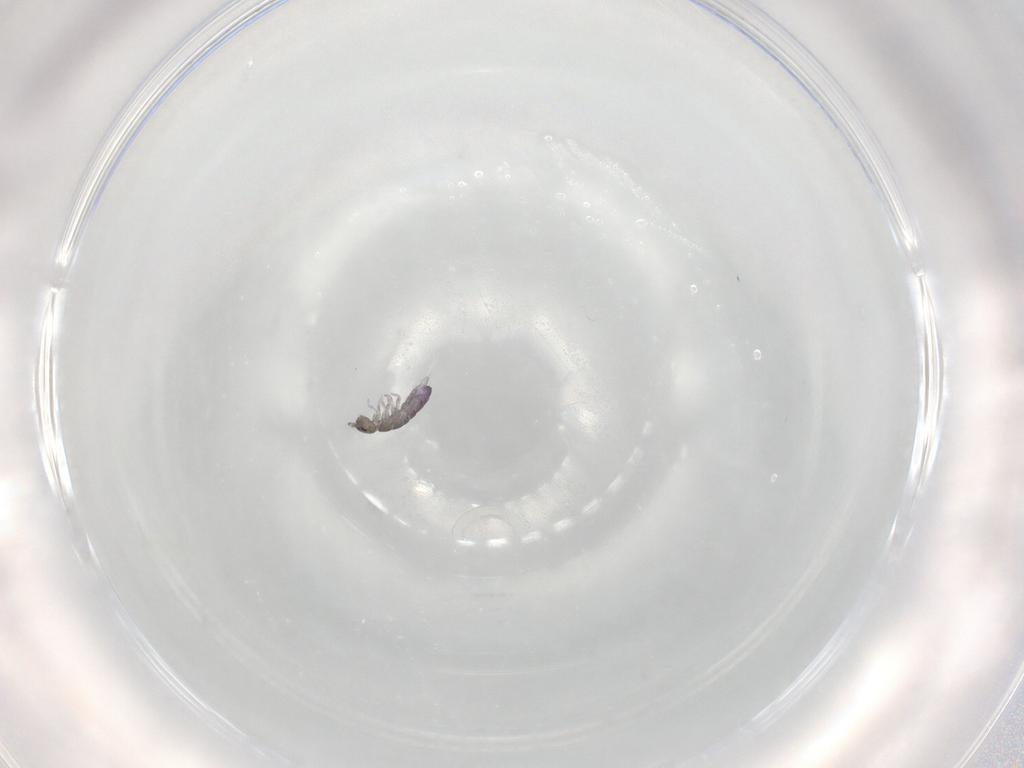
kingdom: Animalia
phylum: Arthropoda
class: Collembola
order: Entomobryomorpha
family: Isotomidae
